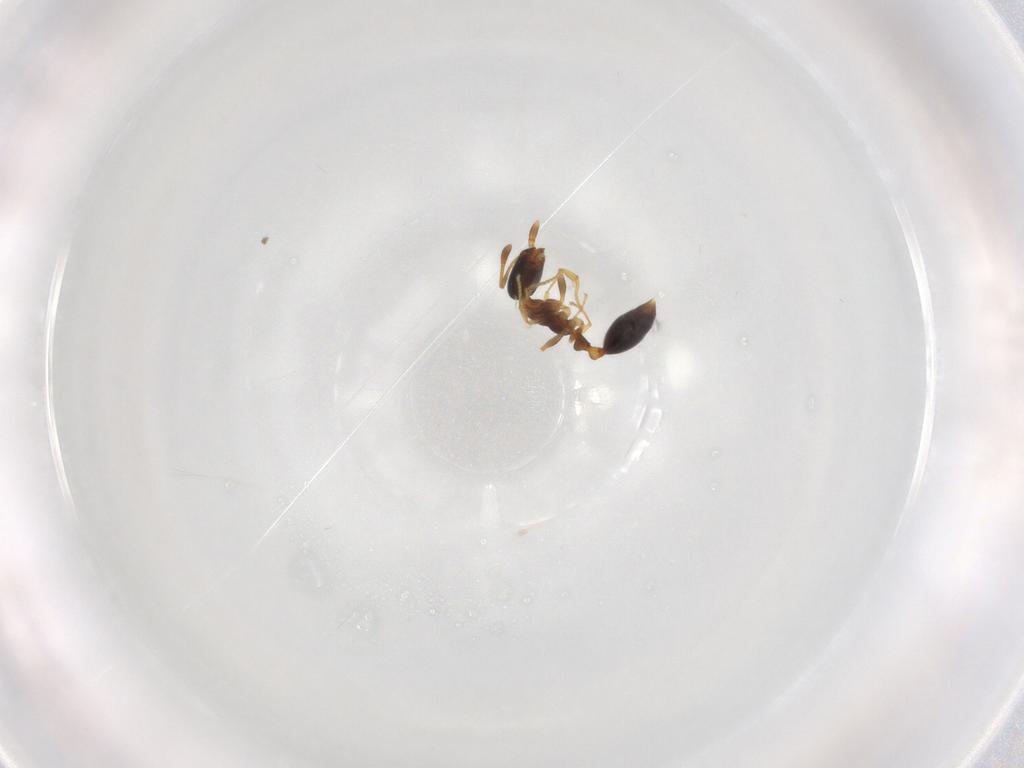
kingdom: Animalia
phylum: Arthropoda
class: Insecta
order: Hymenoptera
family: Formicidae
